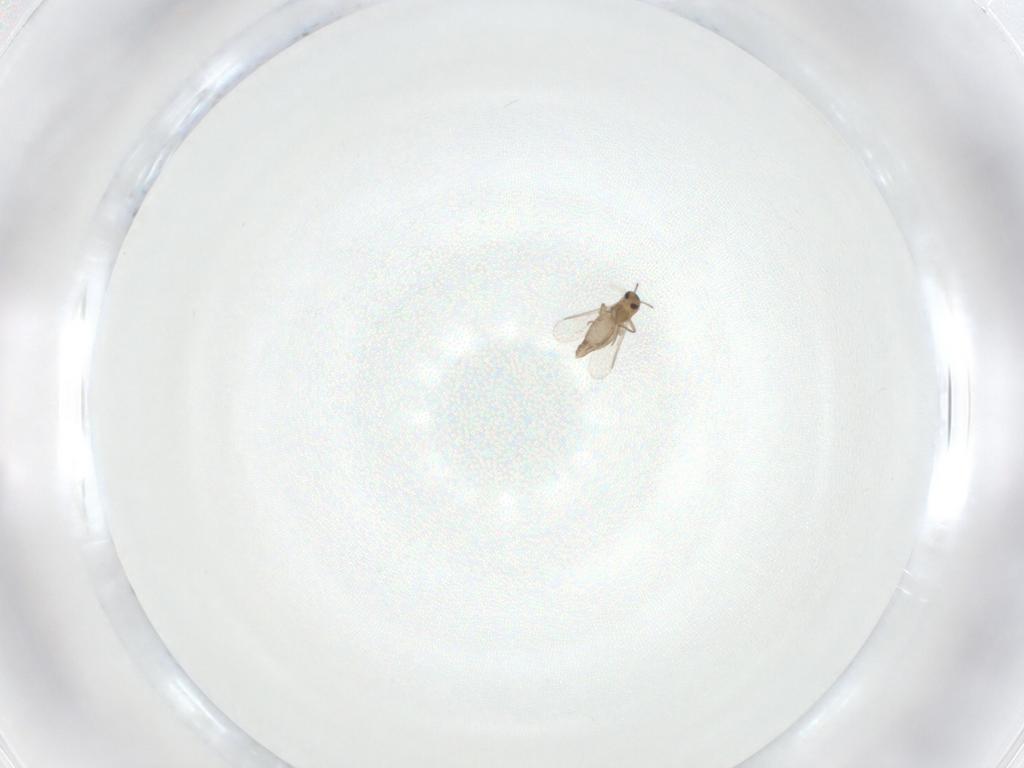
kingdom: Animalia
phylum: Arthropoda
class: Insecta
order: Diptera
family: Chironomidae
